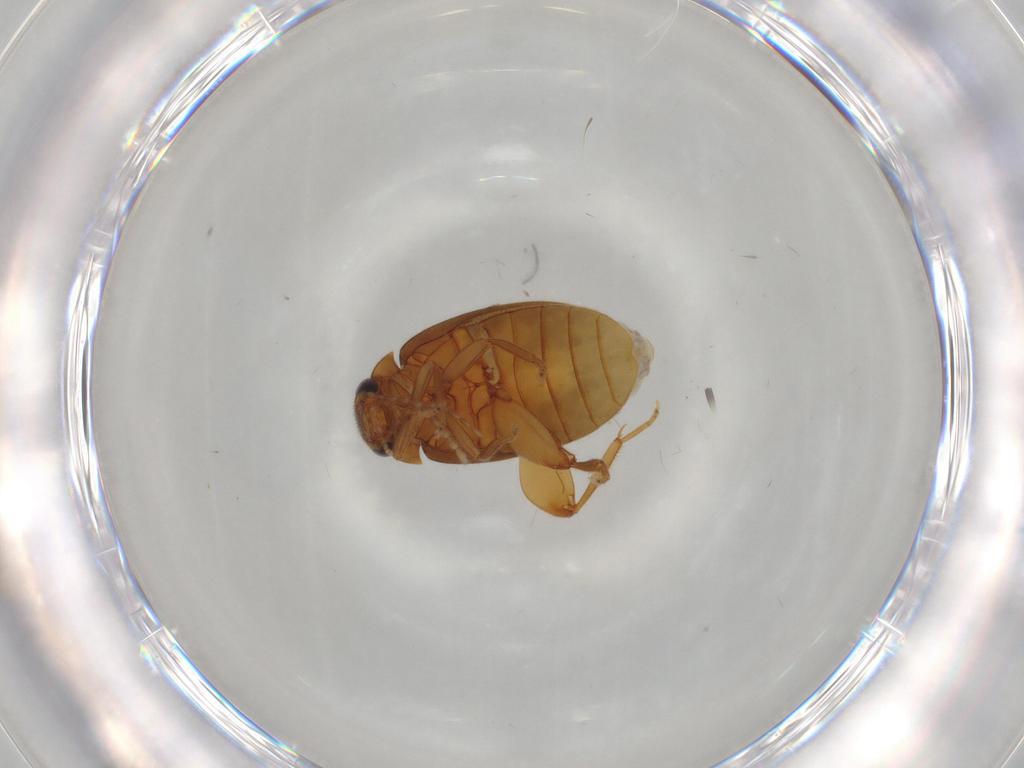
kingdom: Animalia
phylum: Arthropoda
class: Insecta
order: Coleoptera
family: Scirtidae
